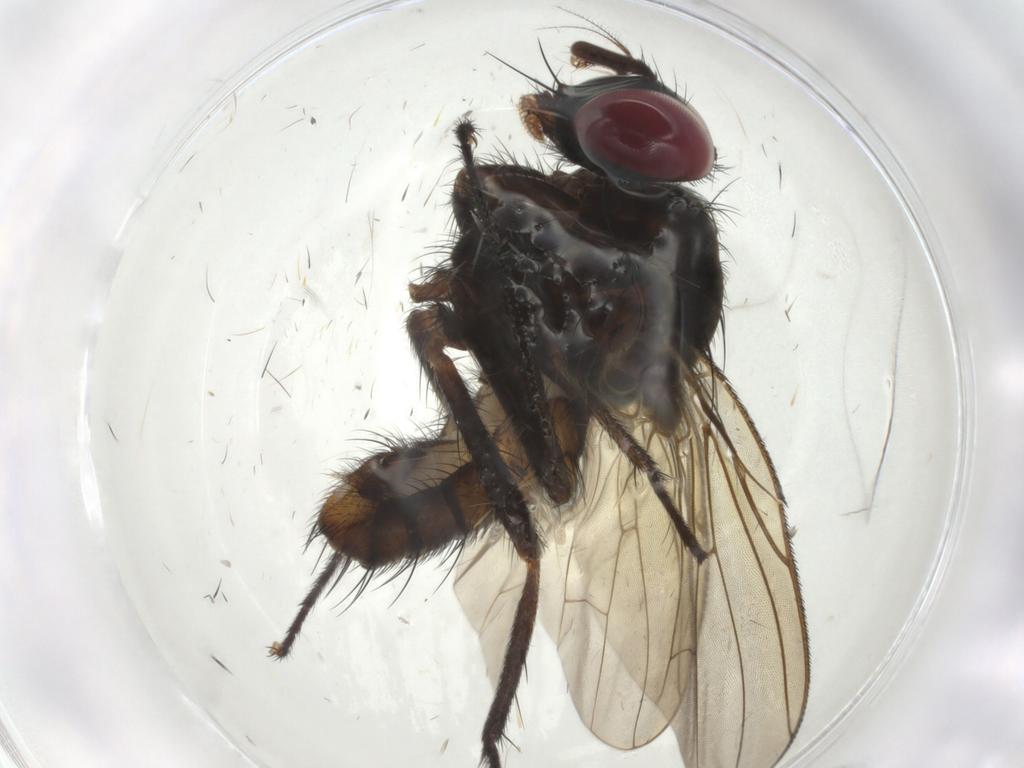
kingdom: Animalia
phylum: Arthropoda
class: Insecta
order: Diptera
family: Anthomyiidae
